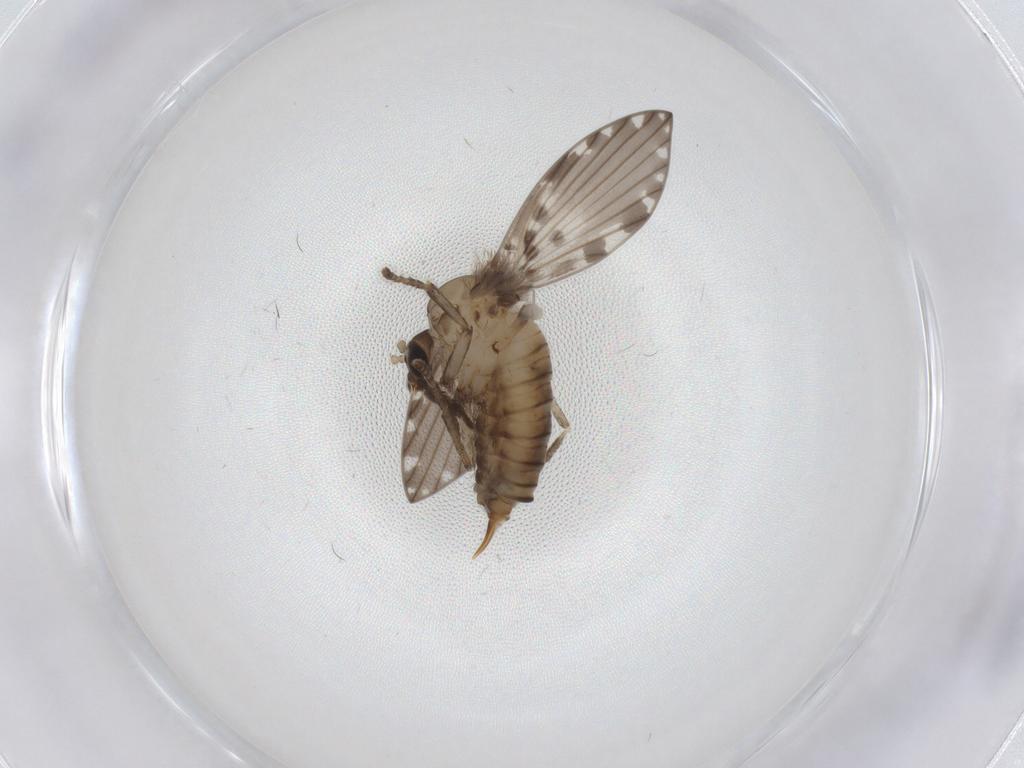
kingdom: Animalia
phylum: Arthropoda
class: Insecta
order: Diptera
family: Psychodidae
